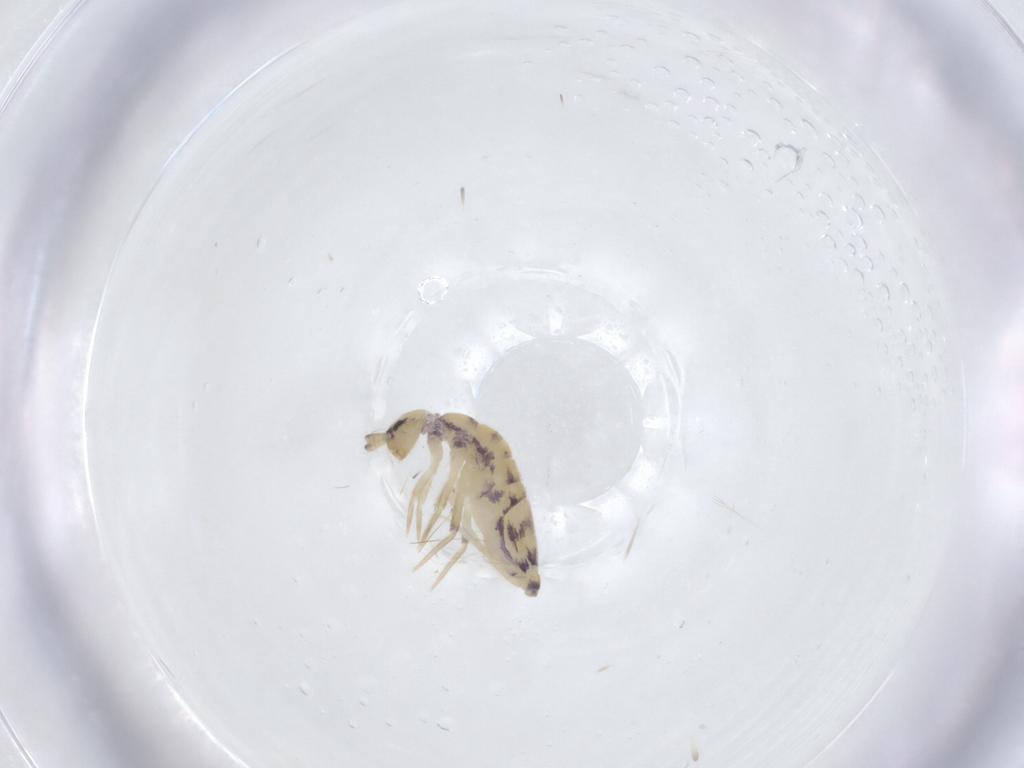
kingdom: Animalia
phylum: Arthropoda
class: Collembola
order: Entomobryomorpha
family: Entomobryidae
